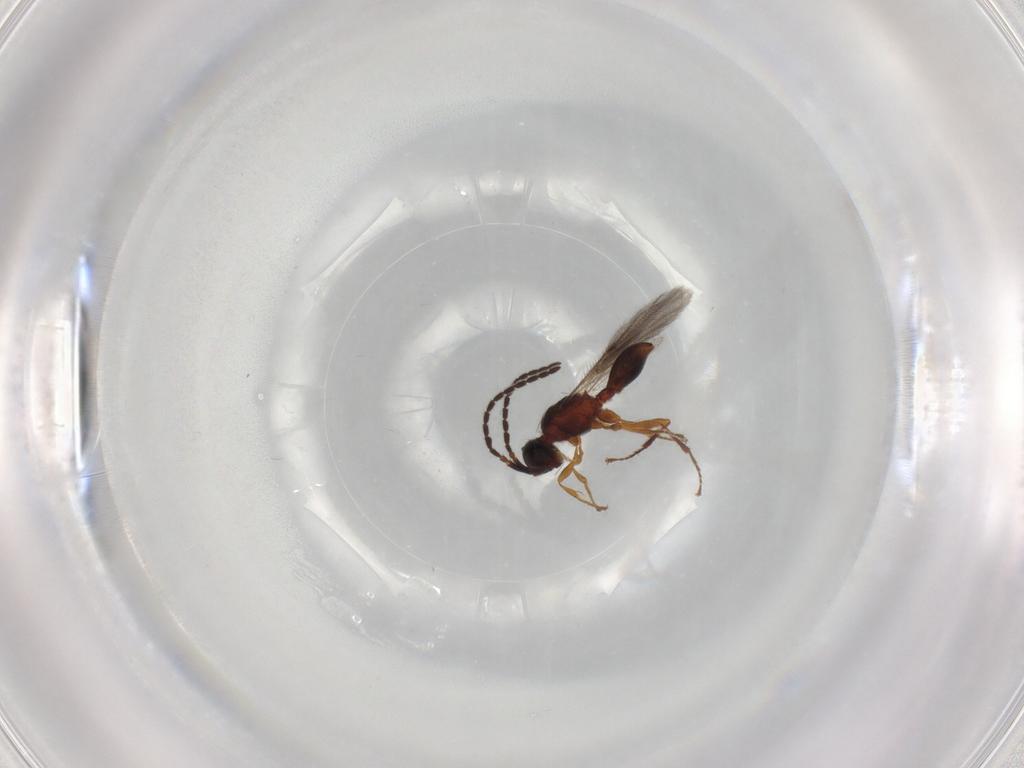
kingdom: Animalia
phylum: Arthropoda
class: Insecta
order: Hymenoptera
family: Diapriidae
